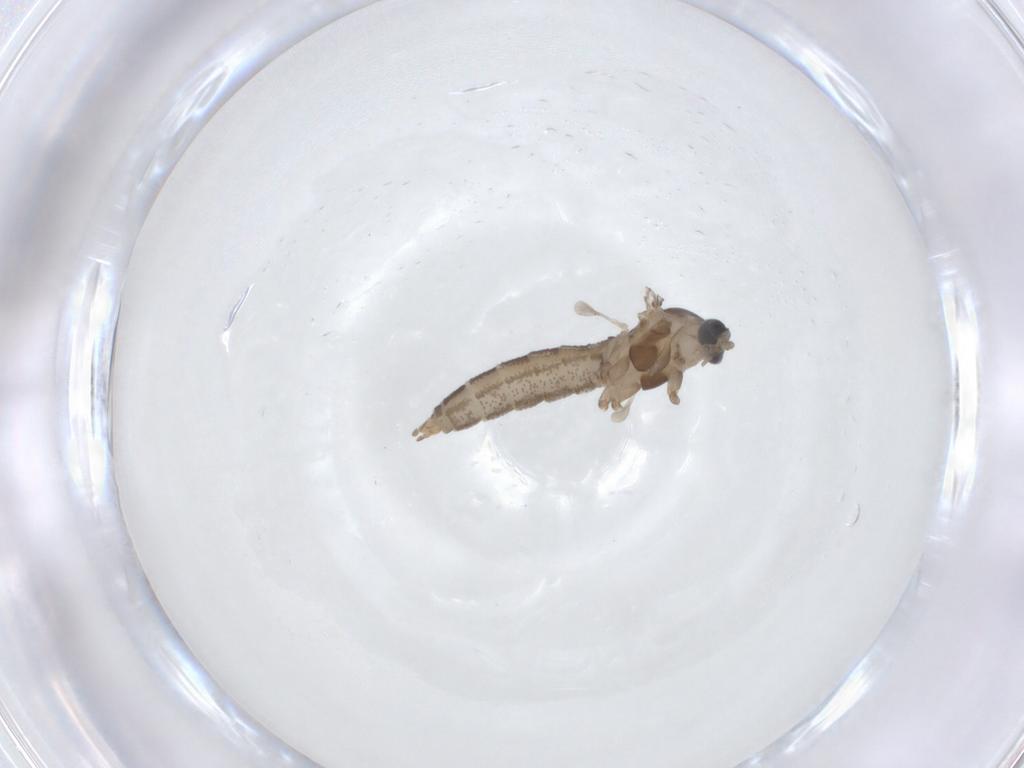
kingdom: Animalia
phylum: Arthropoda
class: Insecta
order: Diptera
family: Cecidomyiidae
